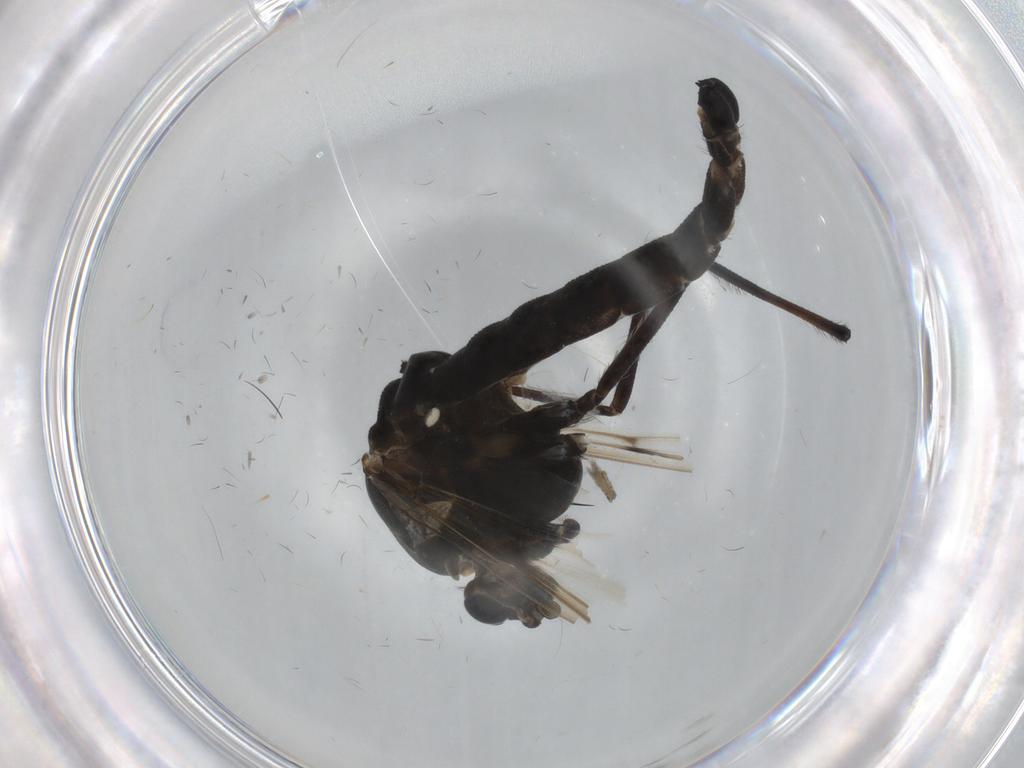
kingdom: Animalia
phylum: Arthropoda
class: Insecta
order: Diptera
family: Chironomidae
